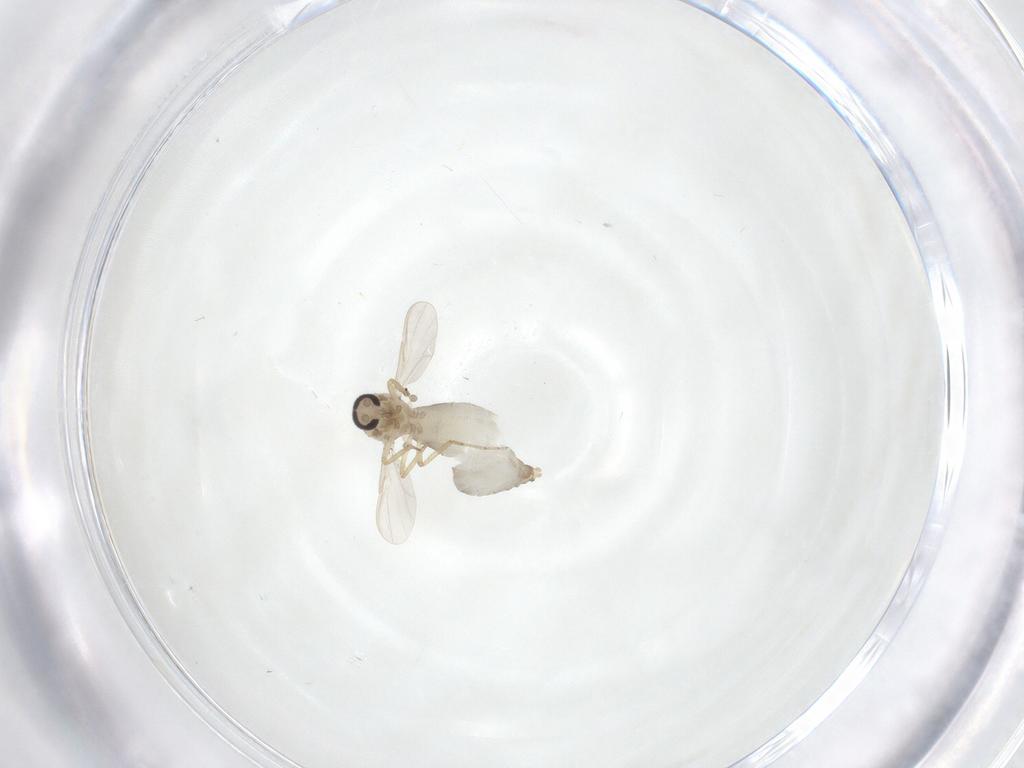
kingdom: Animalia
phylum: Arthropoda
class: Insecta
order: Diptera
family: Ceratopogonidae
